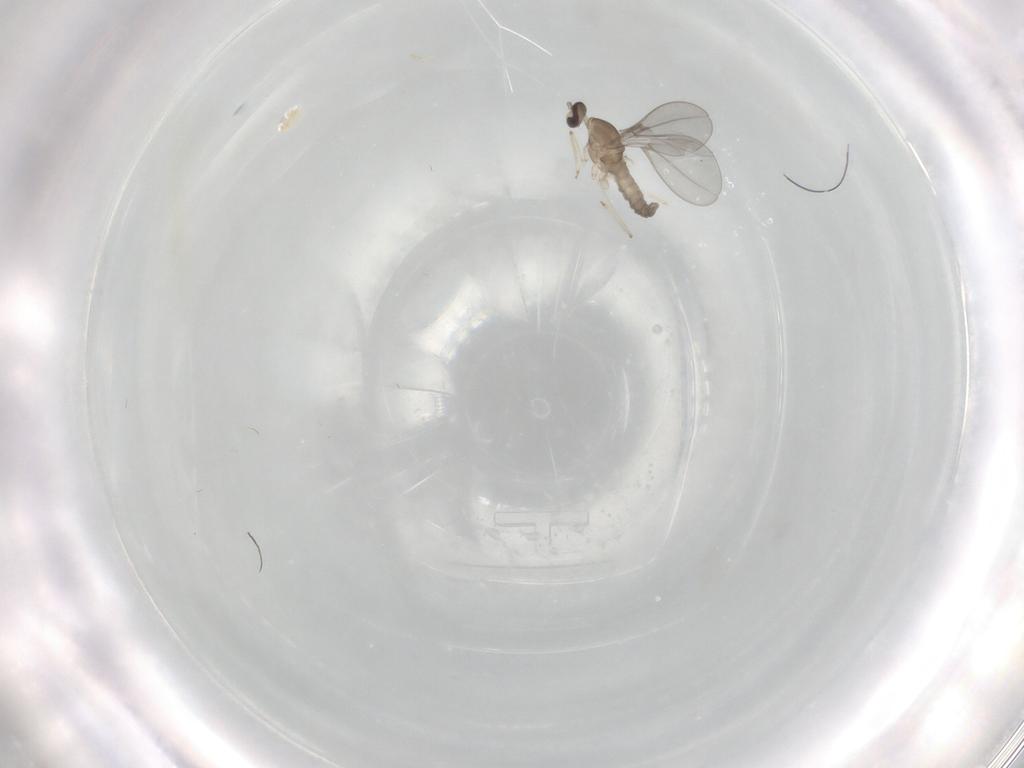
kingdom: Animalia
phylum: Arthropoda
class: Insecta
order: Diptera
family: Cecidomyiidae
